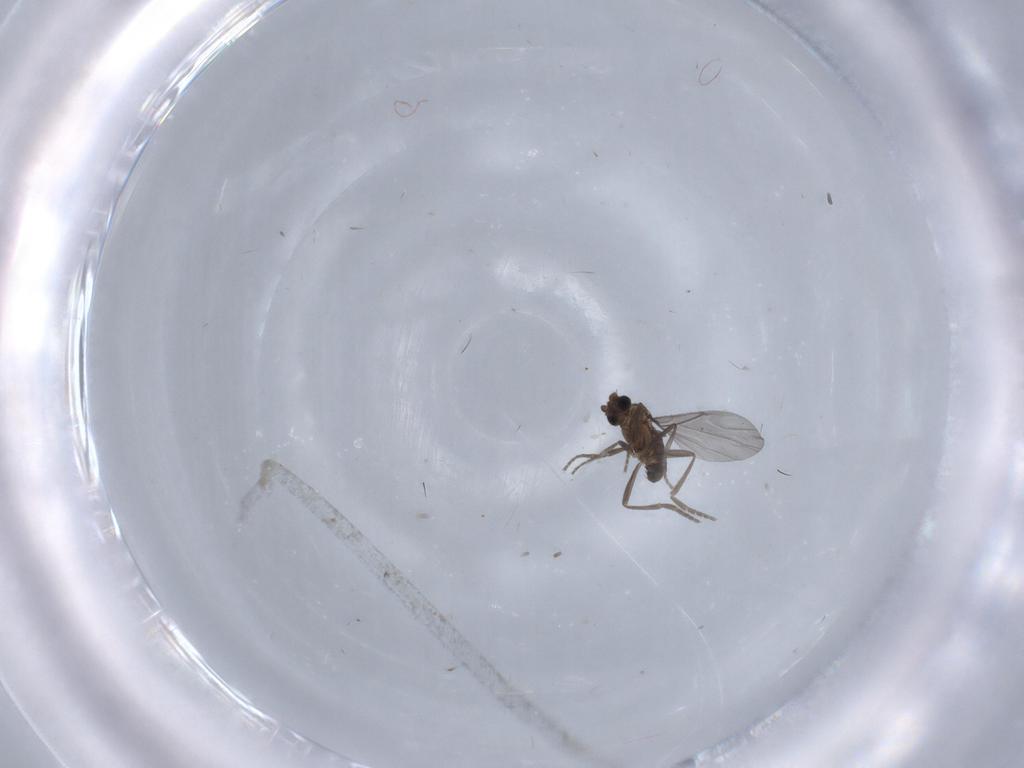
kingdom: Animalia
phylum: Arthropoda
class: Insecta
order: Diptera
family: Phoridae
